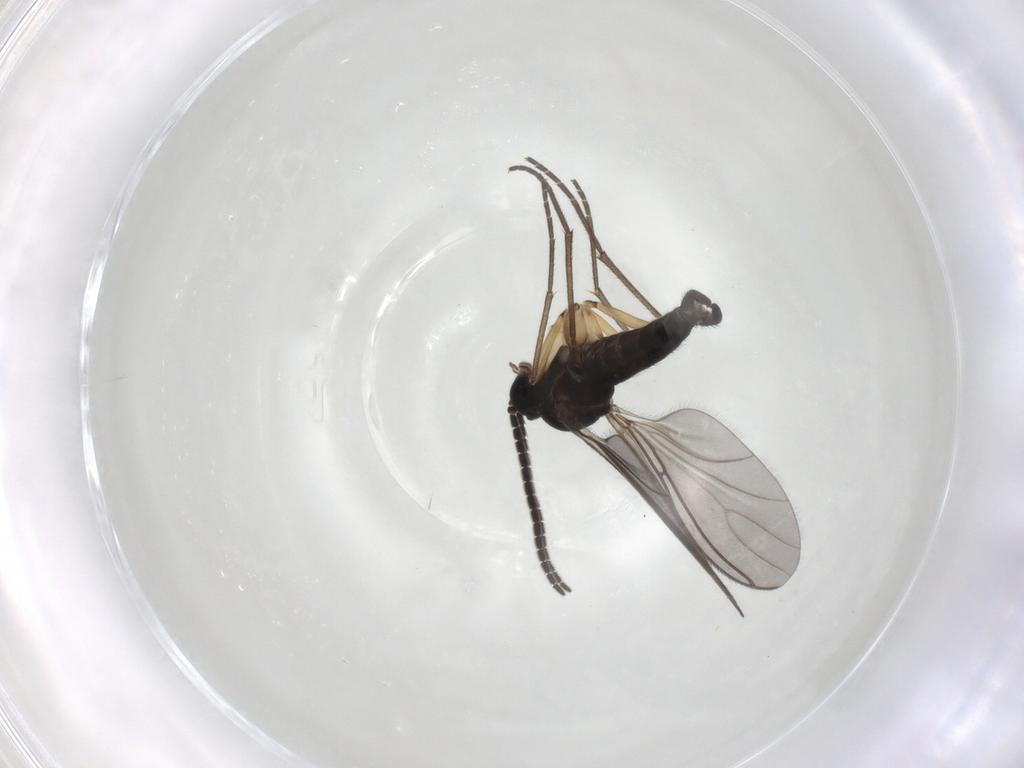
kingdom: Animalia
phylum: Arthropoda
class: Insecta
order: Diptera
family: Sciaridae
